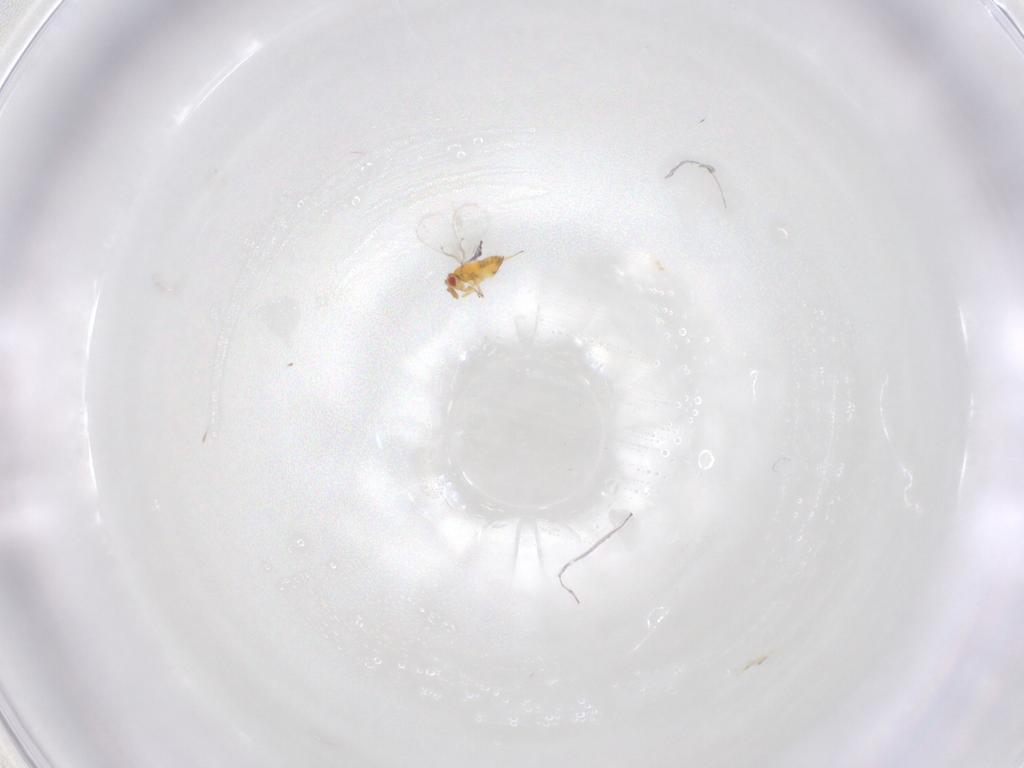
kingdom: Animalia
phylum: Arthropoda
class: Insecta
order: Hymenoptera
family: Trichogrammatidae
